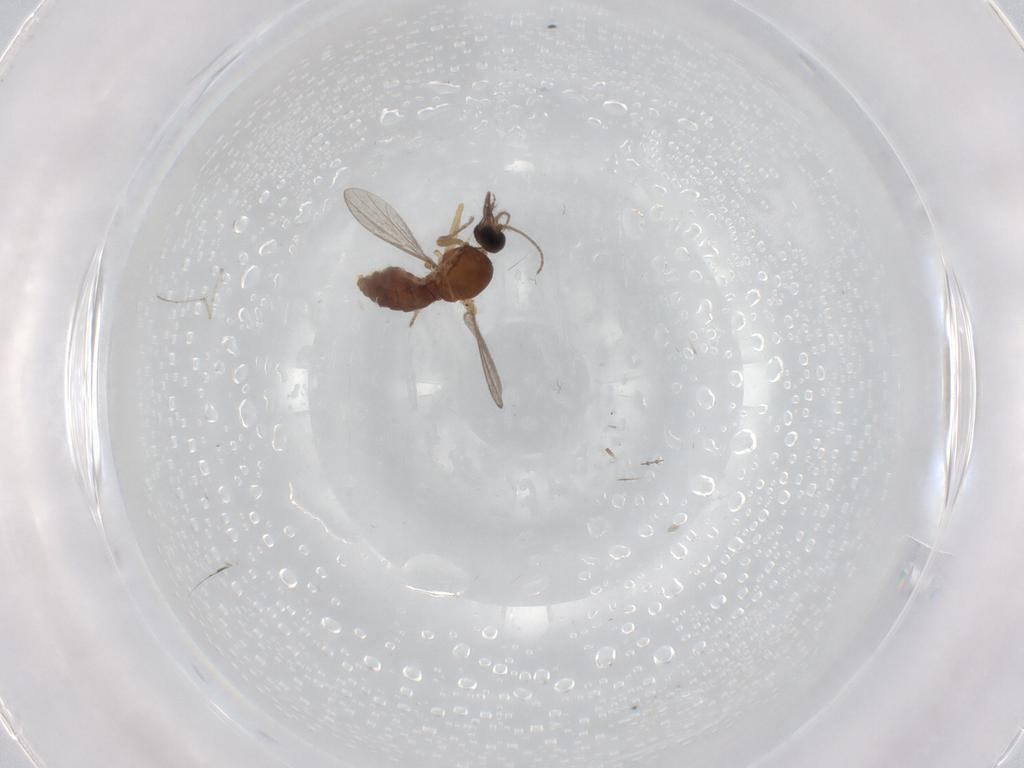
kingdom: Animalia
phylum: Arthropoda
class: Insecta
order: Diptera
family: Ceratopogonidae
